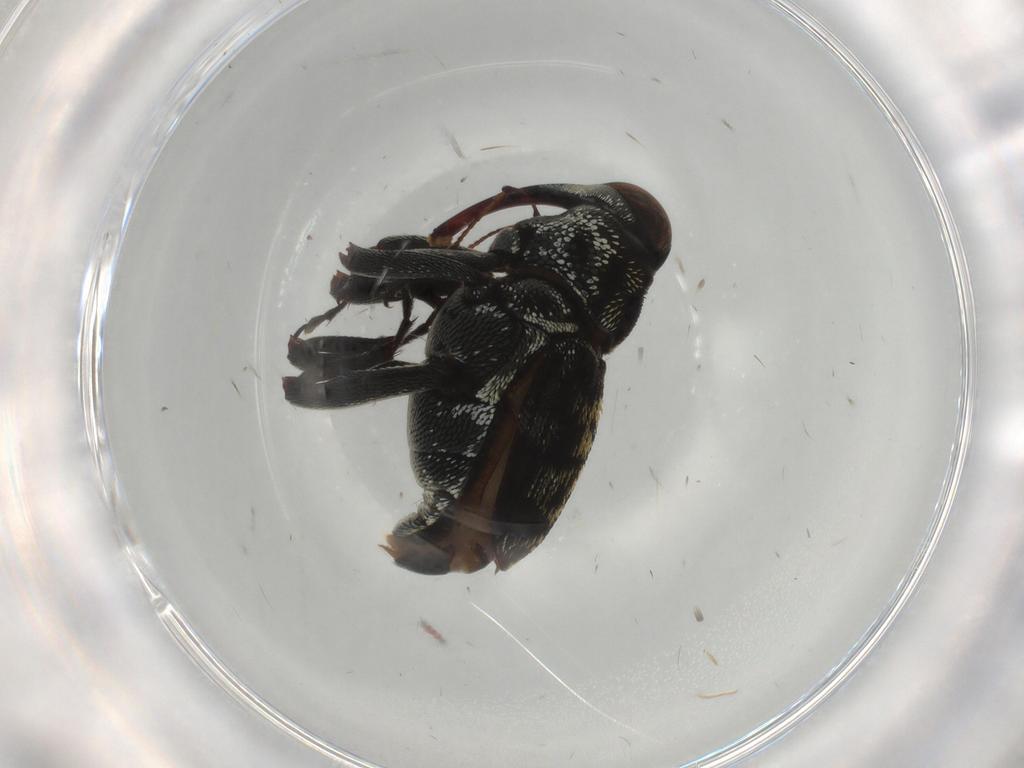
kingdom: Animalia
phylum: Arthropoda
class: Insecta
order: Coleoptera
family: Curculionidae
